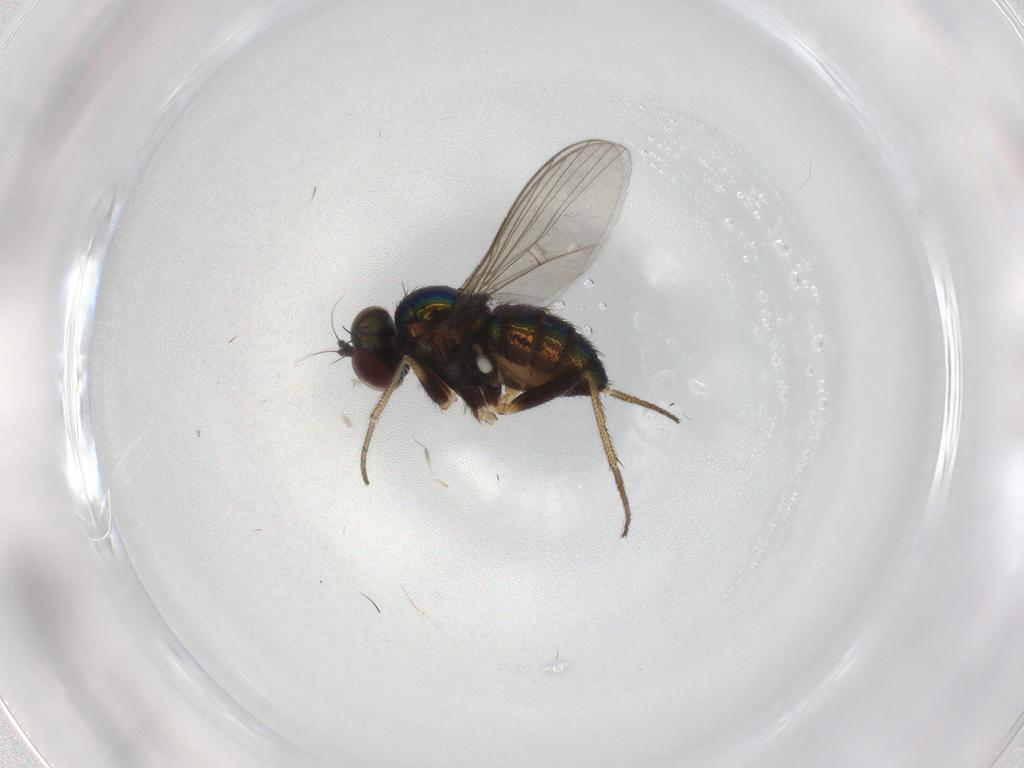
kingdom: Animalia
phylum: Arthropoda
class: Insecta
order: Diptera
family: Dolichopodidae
